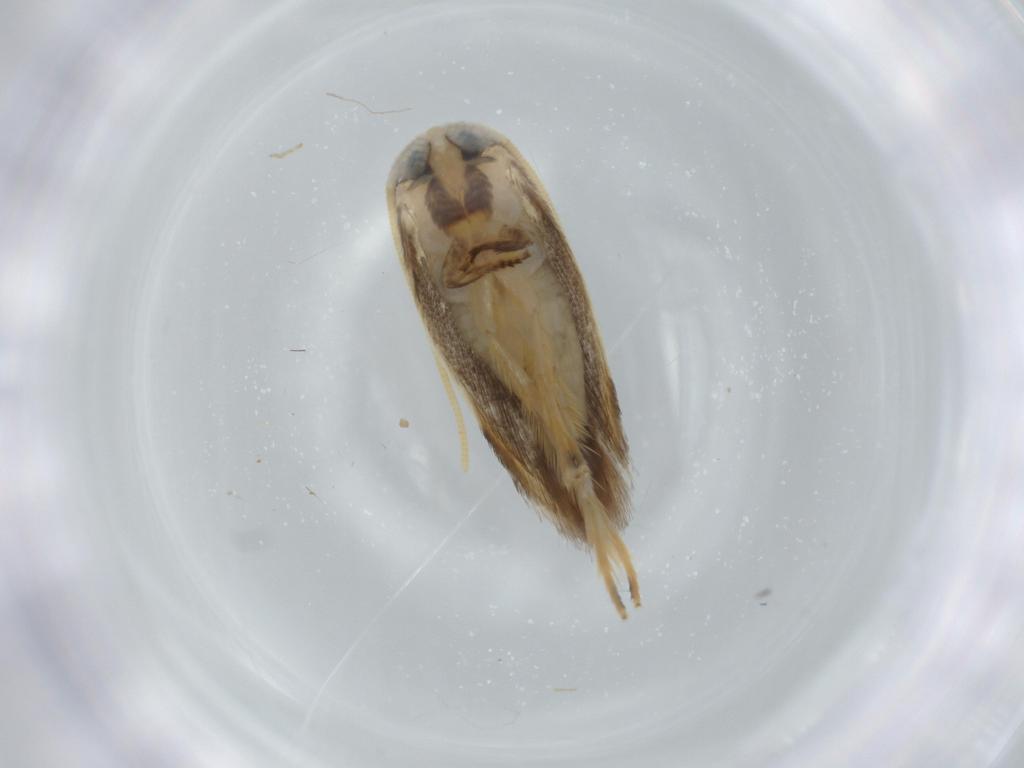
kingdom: Animalia
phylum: Arthropoda
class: Insecta
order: Lepidoptera
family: Opostegidae
